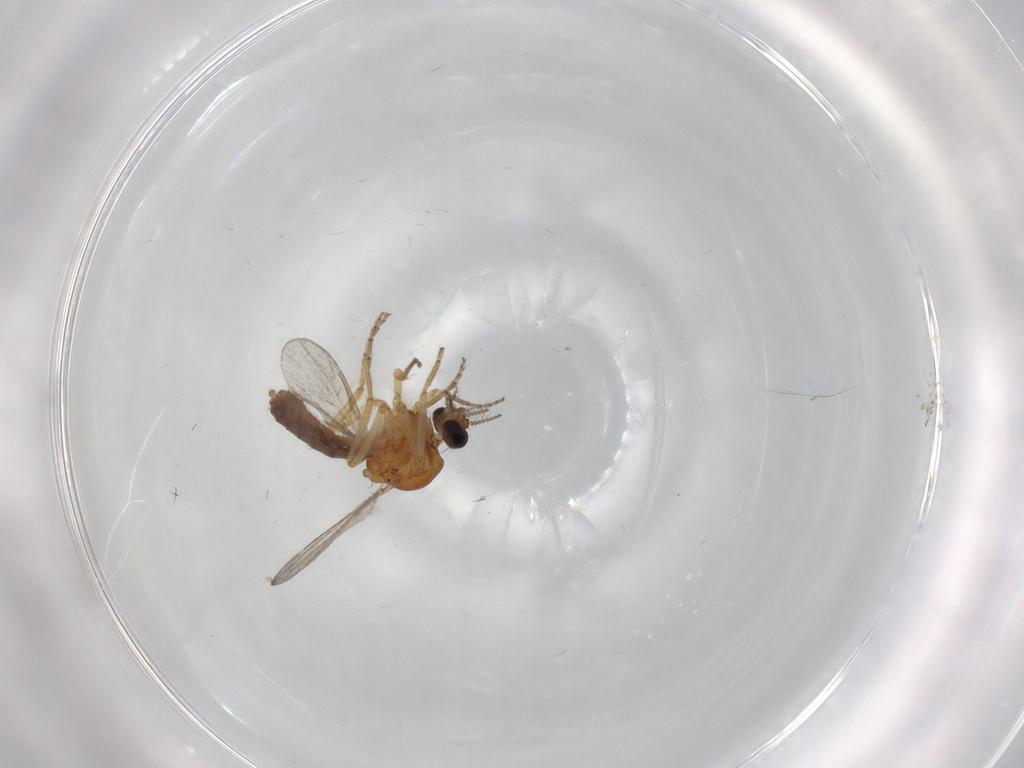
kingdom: Animalia
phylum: Arthropoda
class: Insecta
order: Diptera
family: Ceratopogonidae
